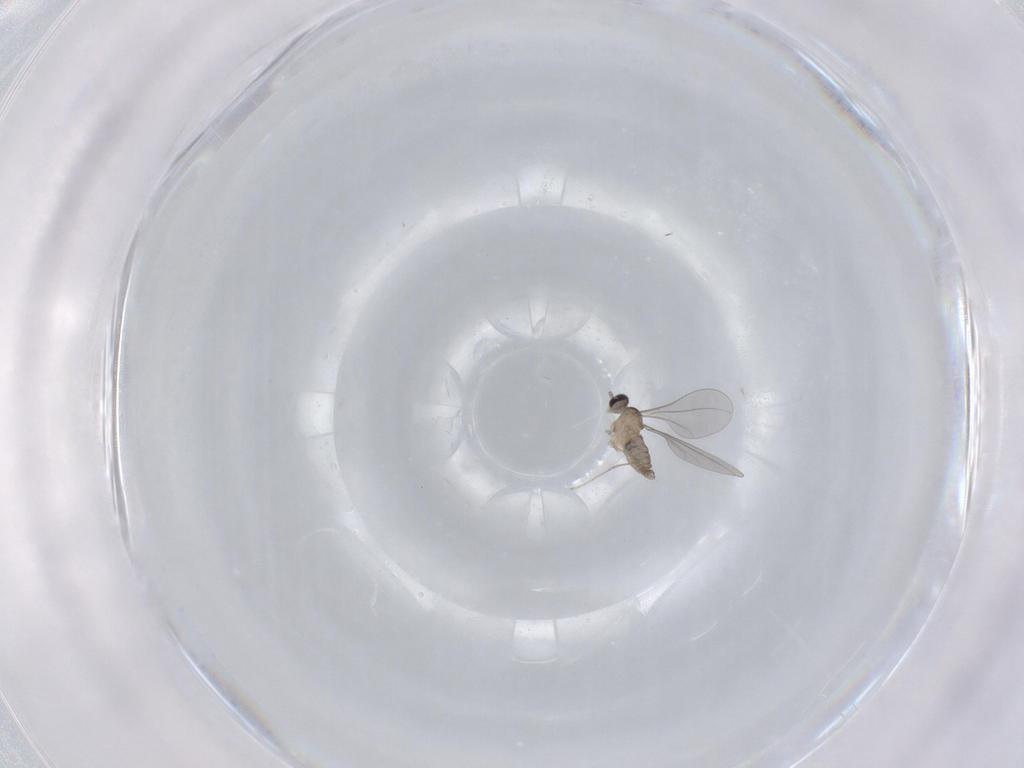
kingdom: Animalia
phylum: Arthropoda
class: Insecta
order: Diptera
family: Cecidomyiidae
